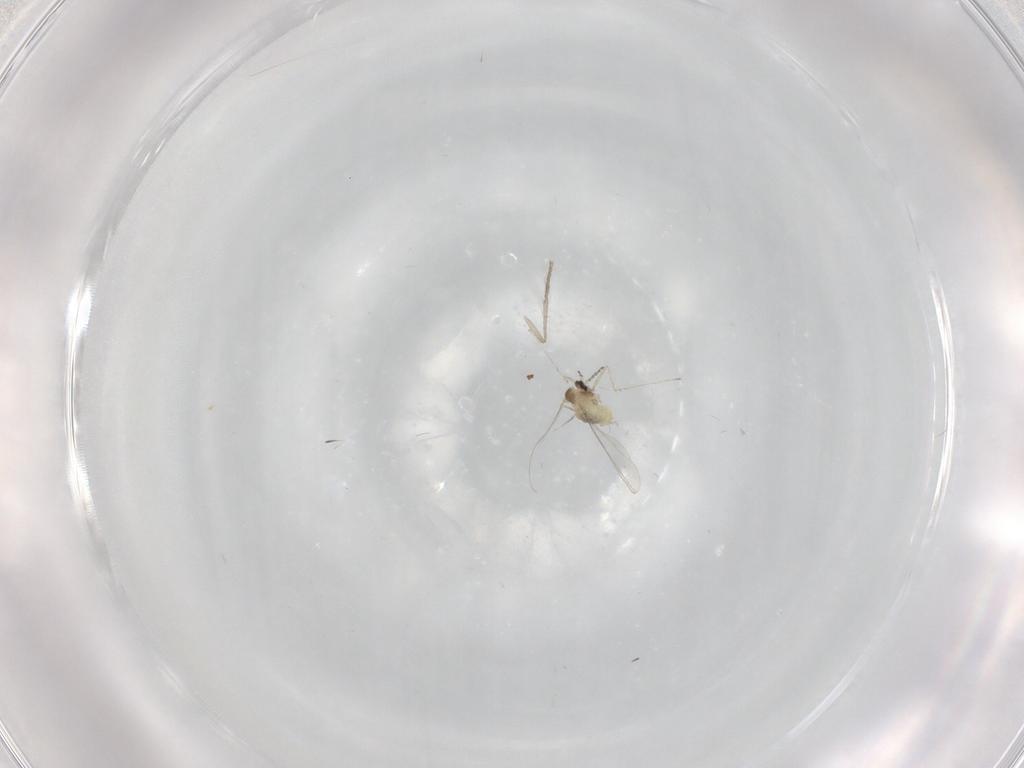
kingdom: Animalia
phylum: Arthropoda
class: Insecta
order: Diptera
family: Cecidomyiidae
